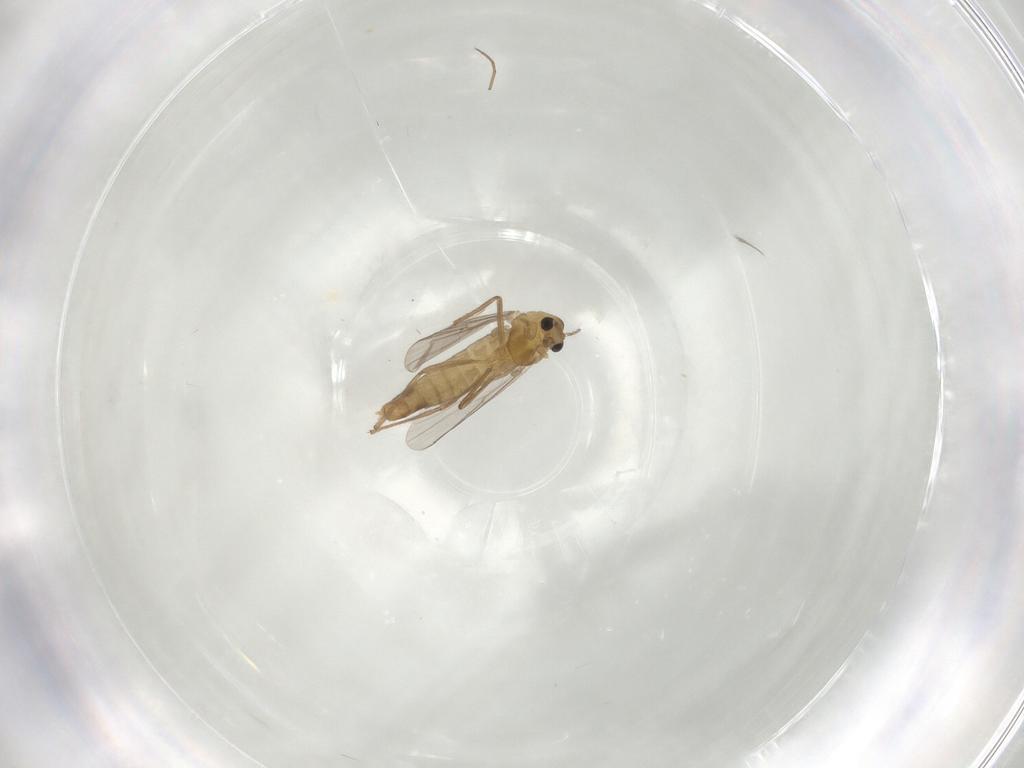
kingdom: Animalia
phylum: Arthropoda
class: Insecta
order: Diptera
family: Chironomidae
